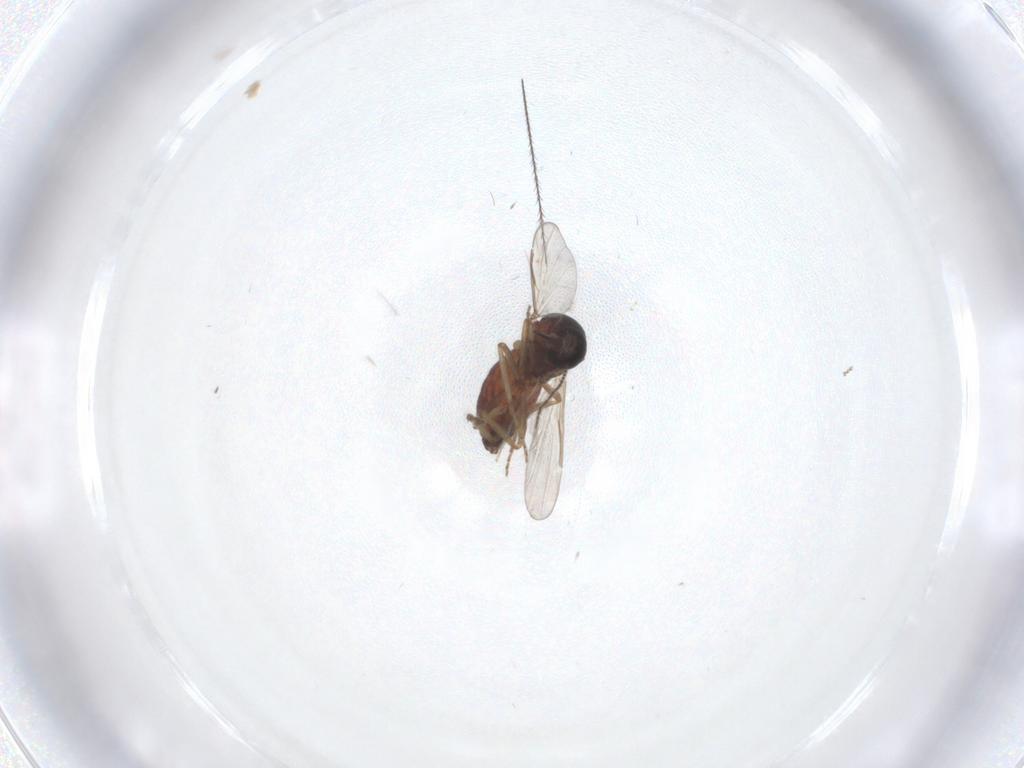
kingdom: Animalia
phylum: Arthropoda
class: Insecta
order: Diptera
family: Ceratopogonidae
